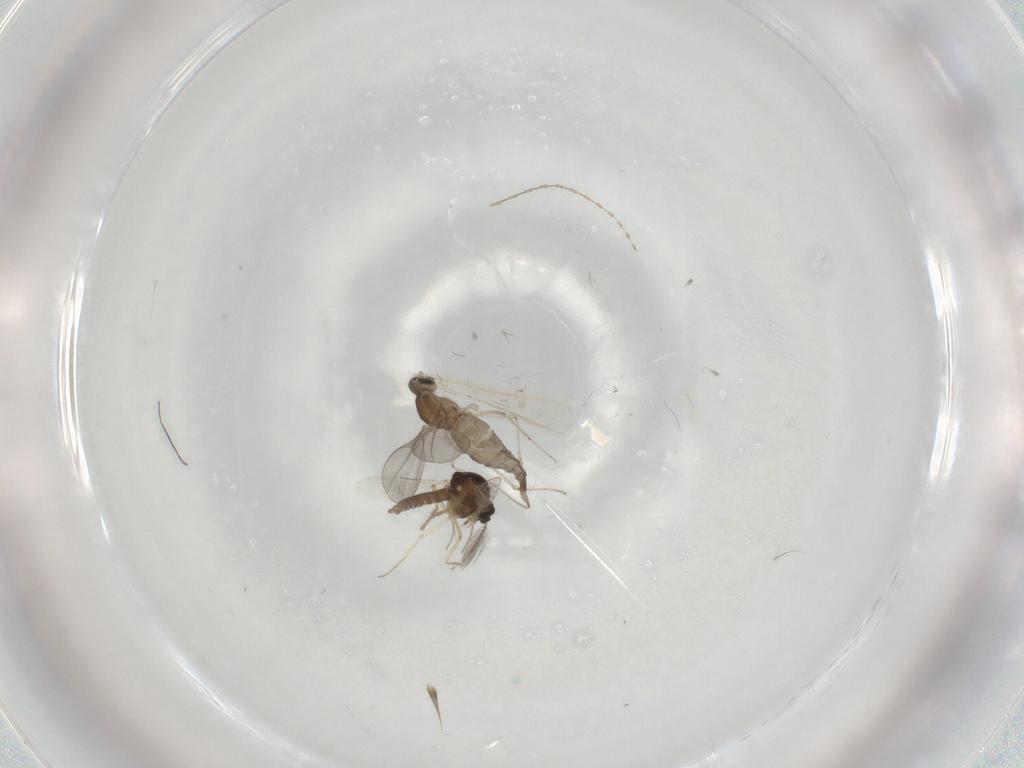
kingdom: Animalia
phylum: Arthropoda
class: Insecta
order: Diptera
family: Cecidomyiidae
